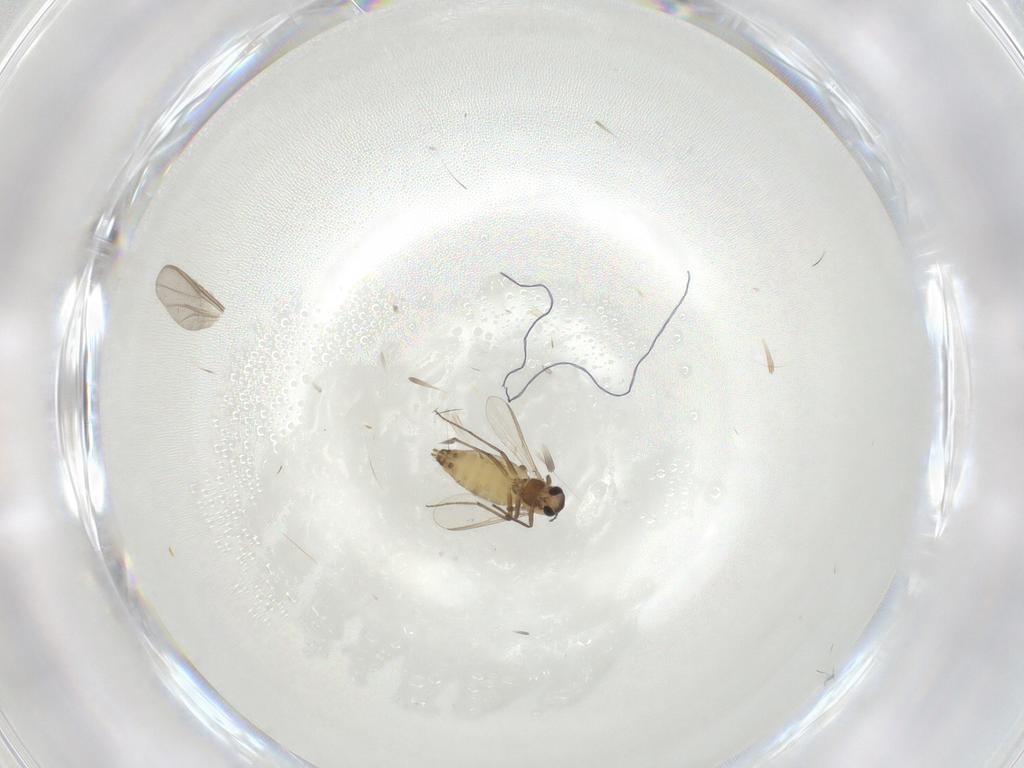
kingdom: Animalia
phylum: Arthropoda
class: Insecta
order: Diptera
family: Chironomidae
